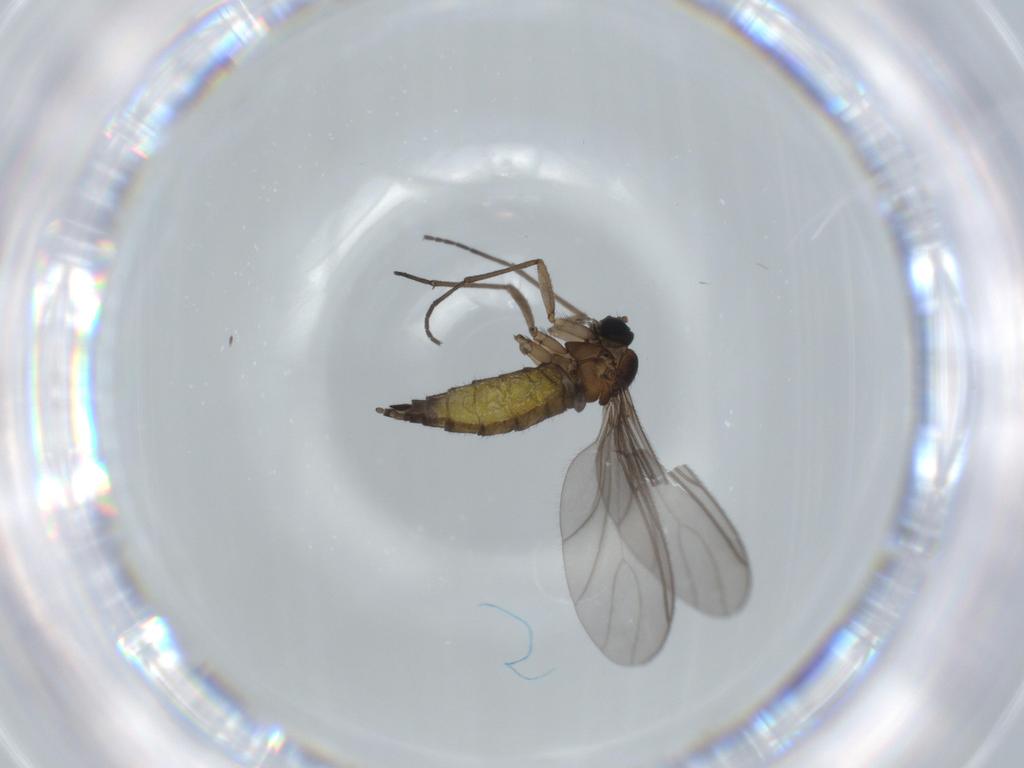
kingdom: Animalia
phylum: Arthropoda
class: Insecta
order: Diptera
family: Sciaridae
